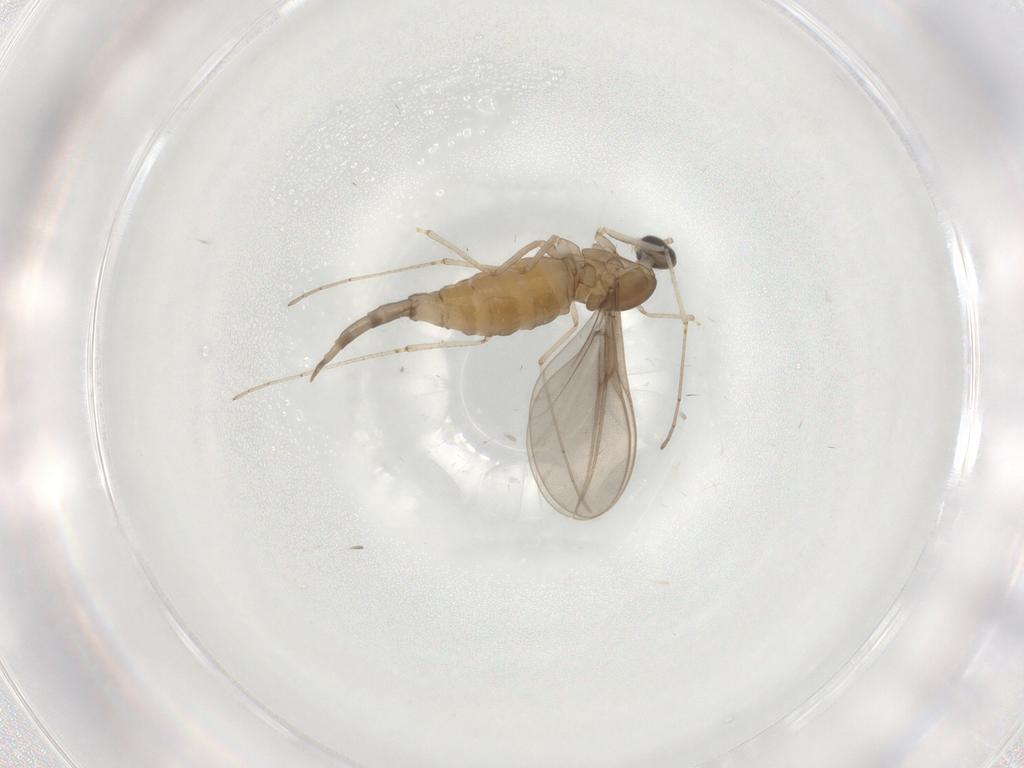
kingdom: Animalia
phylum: Arthropoda
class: Insecta
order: Diptera
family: Cecidomyiidae
